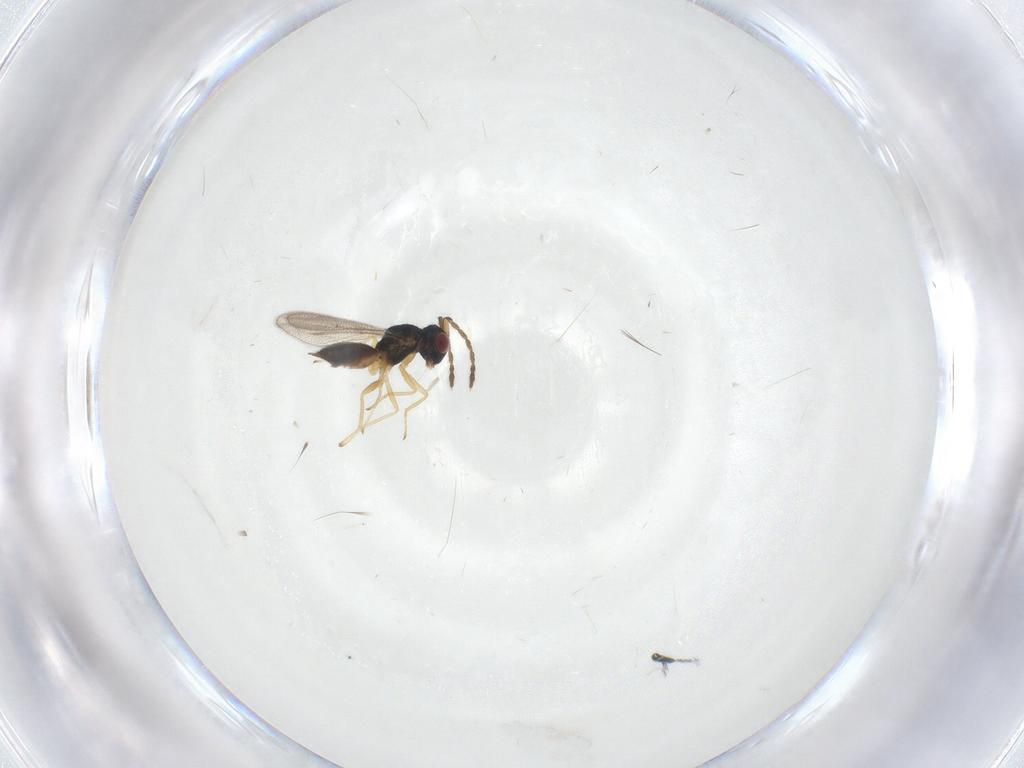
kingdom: Animalia
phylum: Arthropoda
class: Insecta
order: Hymenoptera
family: Eulophidae
